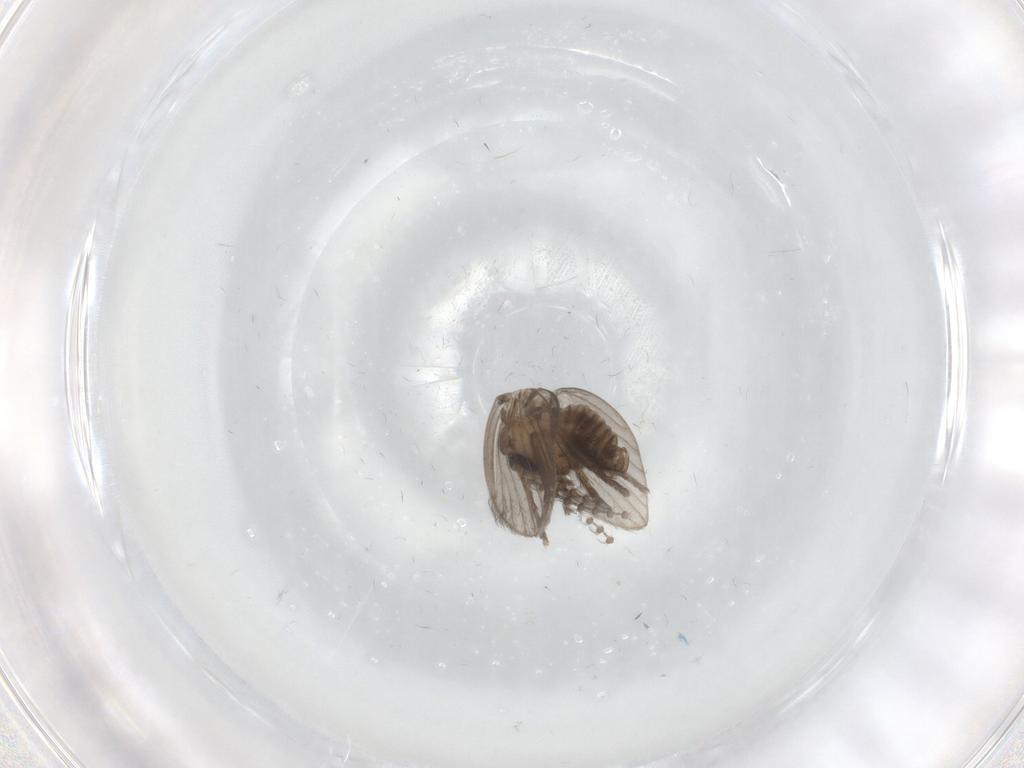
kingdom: Animalia
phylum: Arthropoda
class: Insecta
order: Diptera
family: Psychodidae
